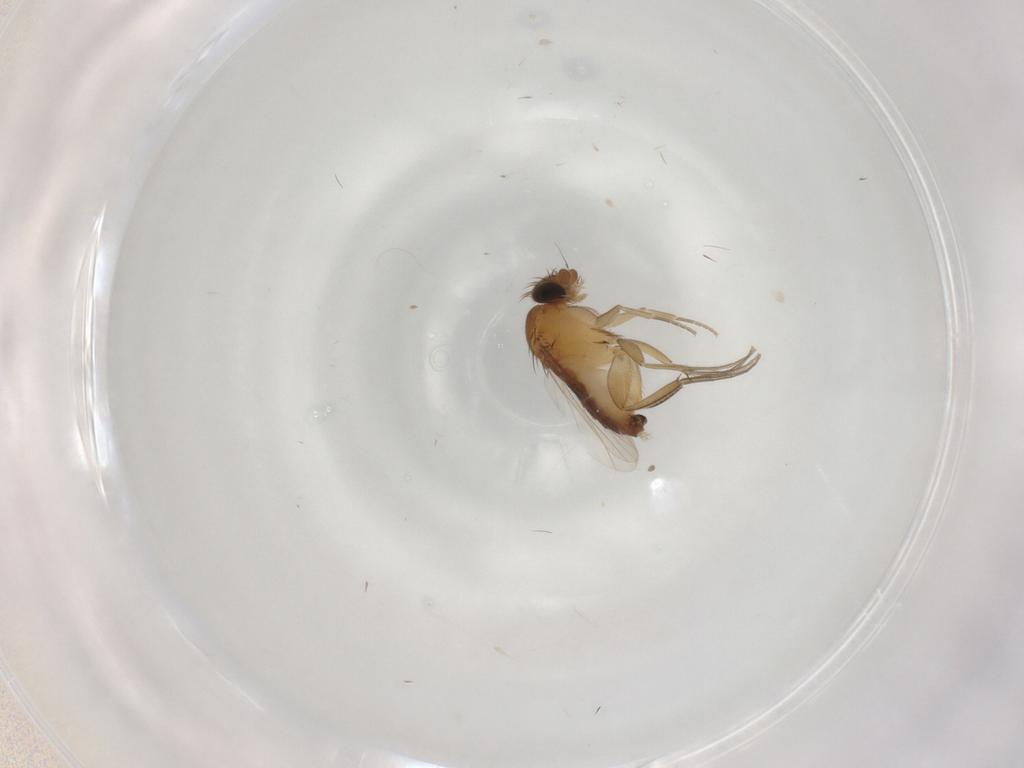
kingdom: Animalia
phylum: Arthropoda
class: Insecta
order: Diptera
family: Phoridae
